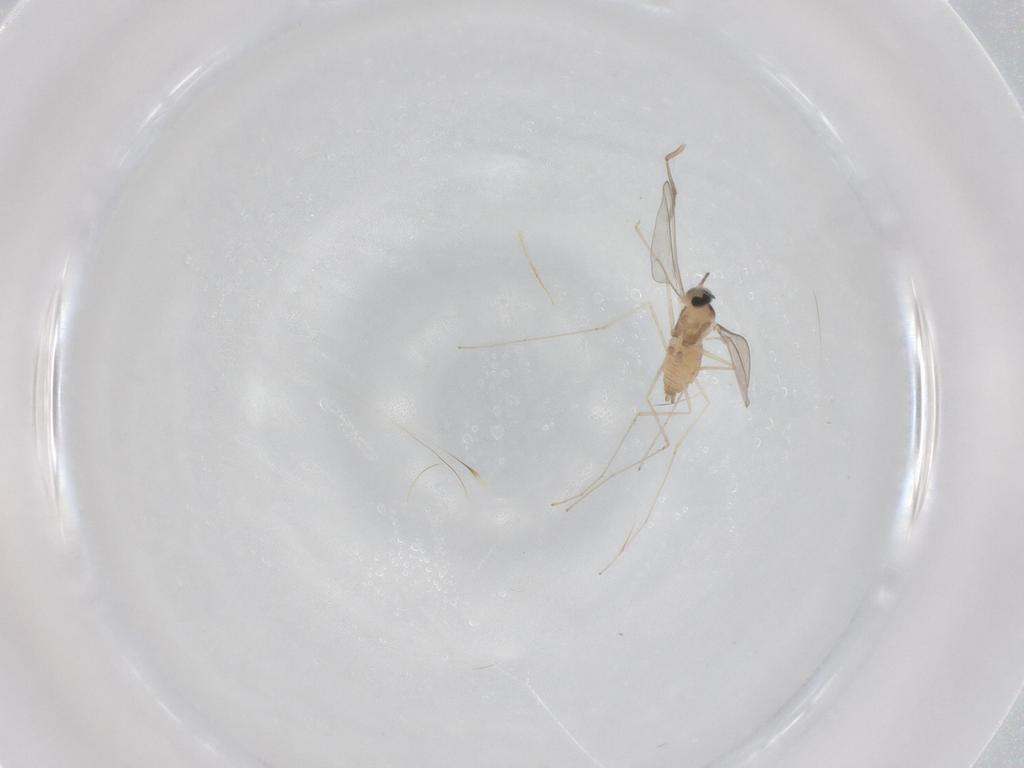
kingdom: Animalia
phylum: Arthropoda
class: Insecta
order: Diptera
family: Cecidomyiidae
